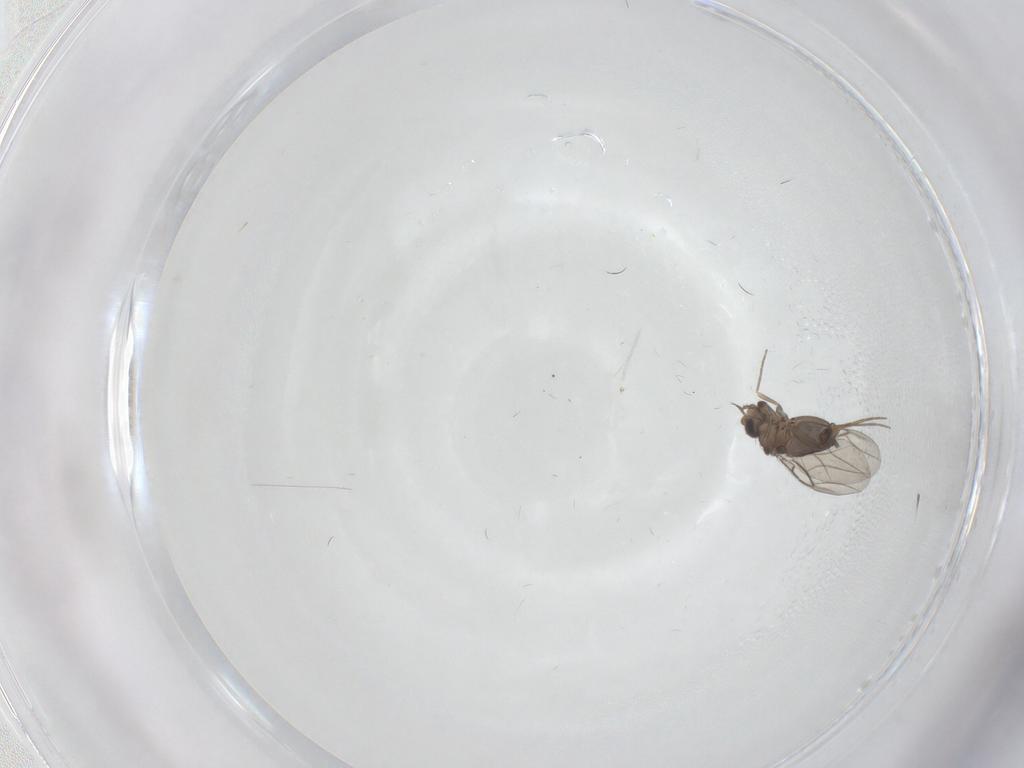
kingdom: Animalia
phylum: Arthropoda
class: Insecta
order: Diptera
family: Phoridae
